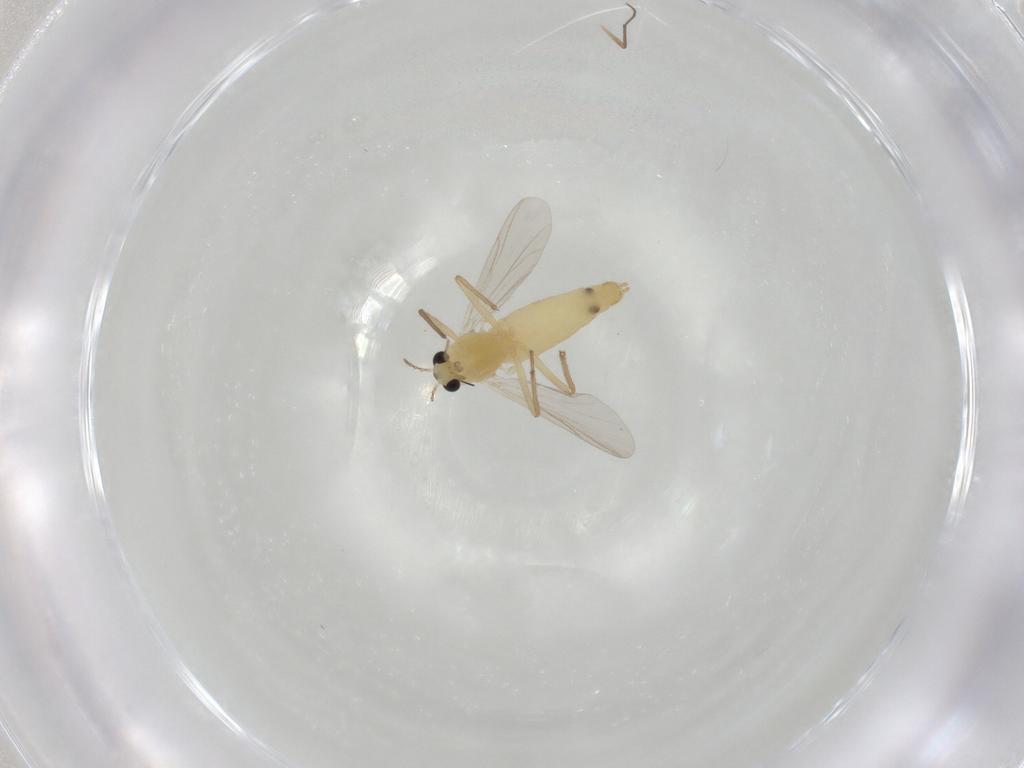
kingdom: Animalia
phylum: Arthropoda
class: Insecta
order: Diptera
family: Chironomidae
